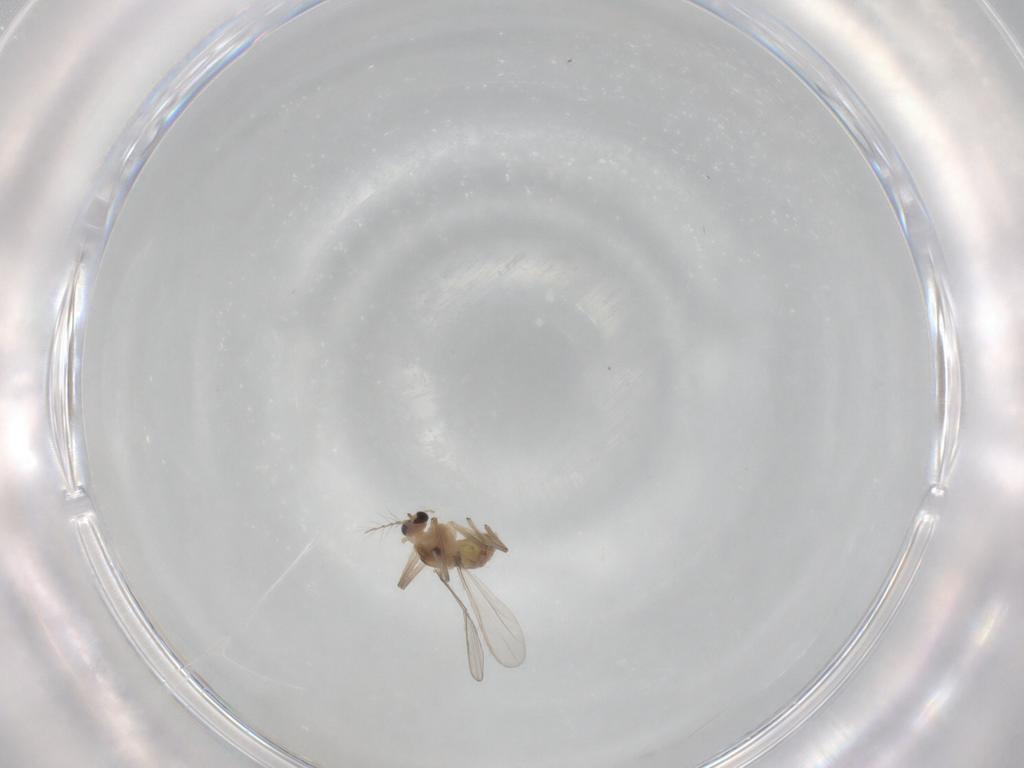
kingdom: Animalia
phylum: Arthropoda
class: Insecta
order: Diptera
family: Chironomidae
